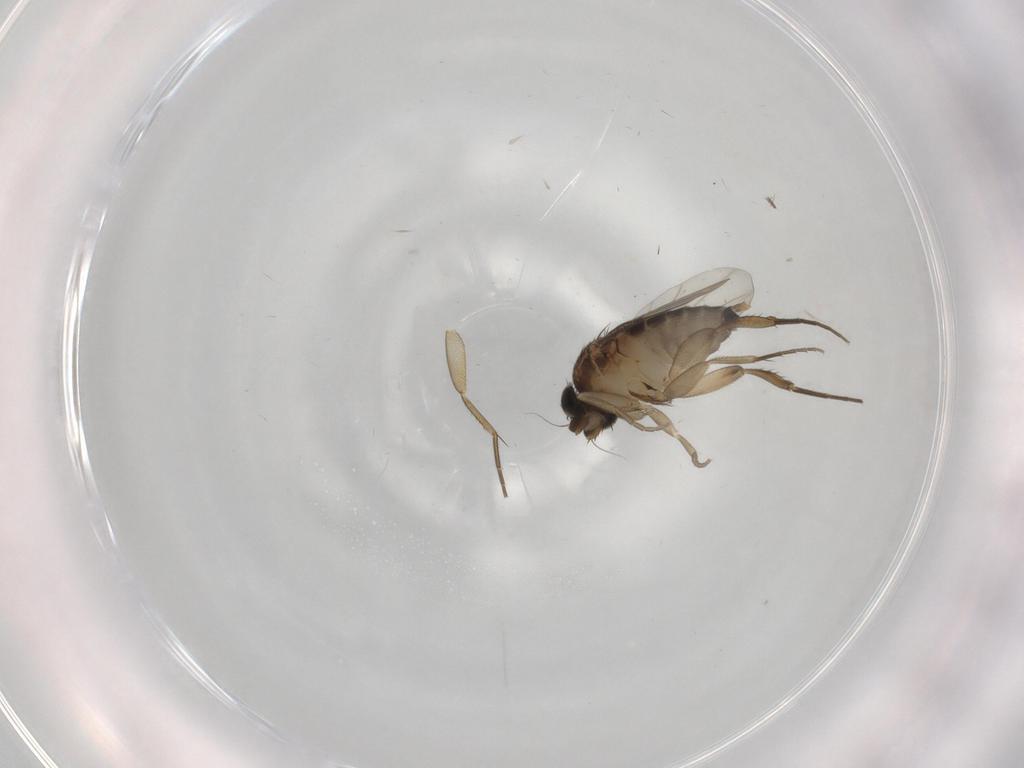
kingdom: Animalia
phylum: Arthropoda
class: Insecta
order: Diptera
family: Phoridae
